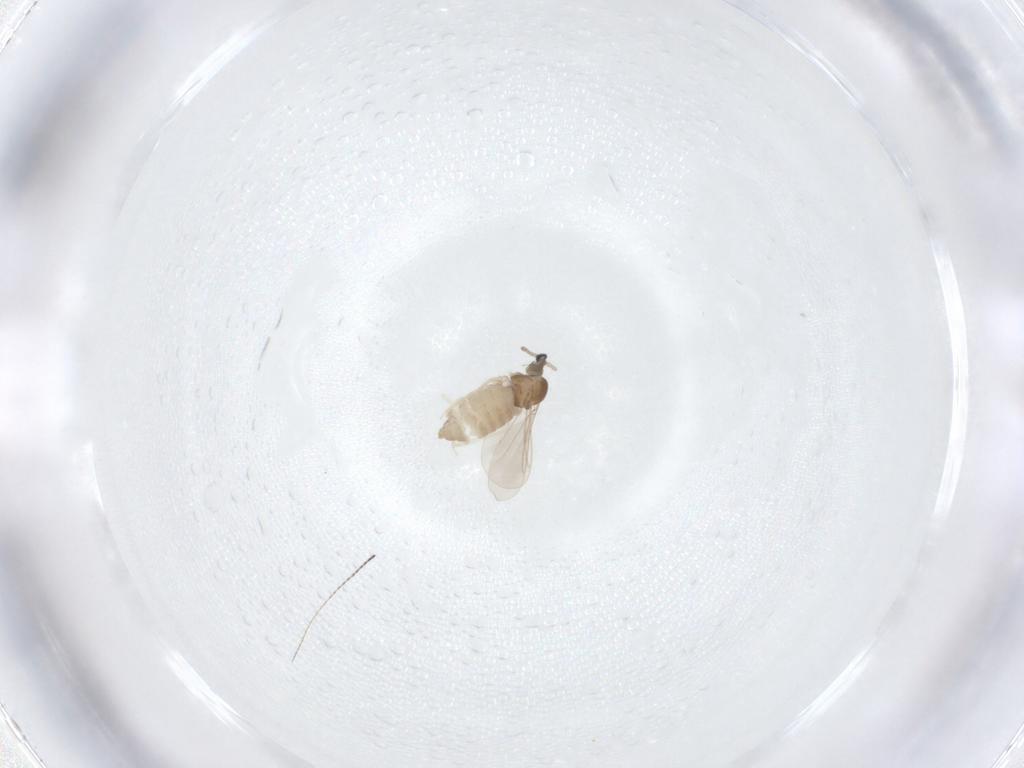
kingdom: Animalia
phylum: Arthropoda
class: Insecta
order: Diptera
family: Cecidomyiidae
